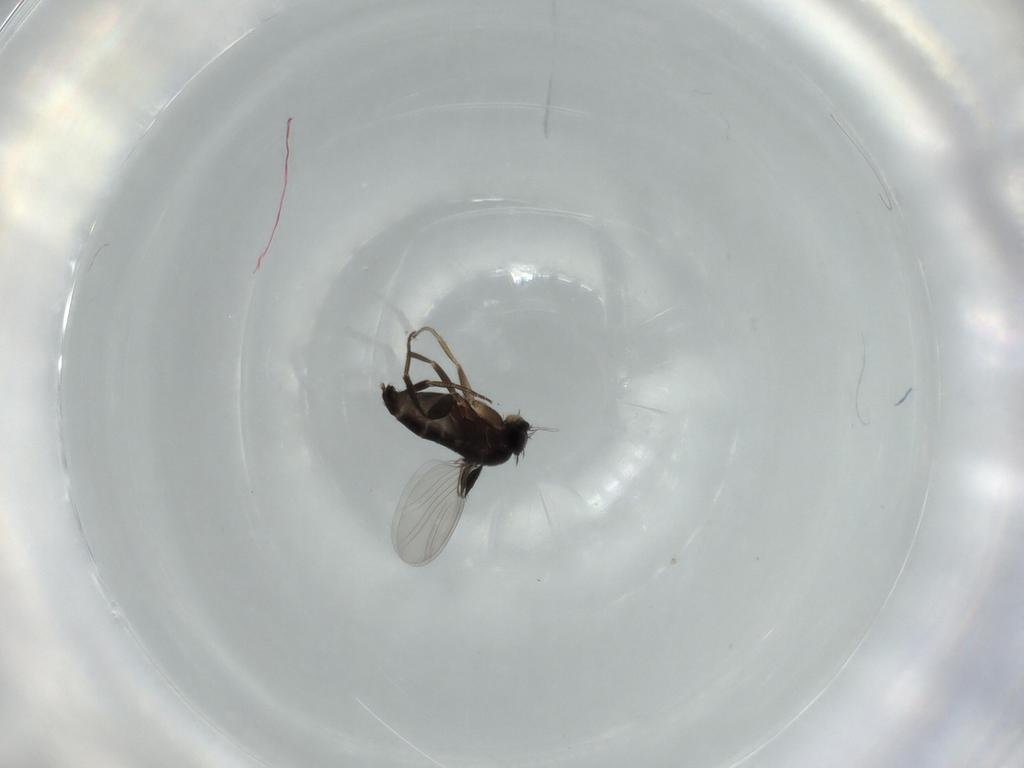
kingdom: Animalia
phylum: Arthropoda
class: Insecta
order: Diptera
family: Phoridae
